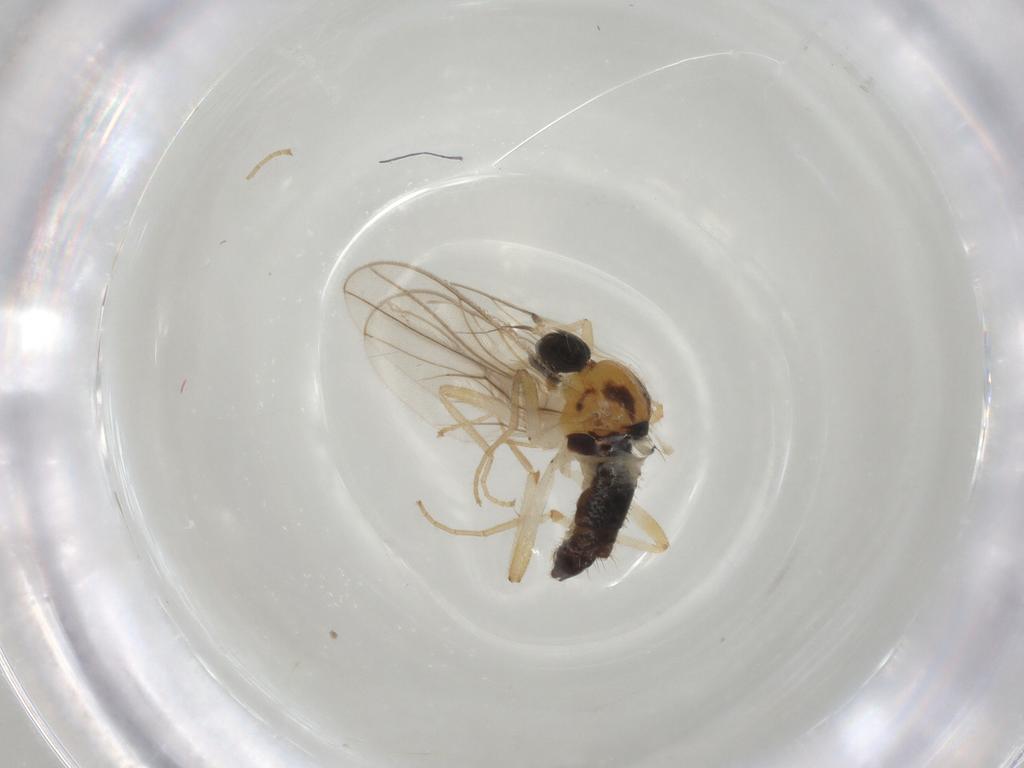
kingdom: Animalia
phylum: Arthropoda
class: Insecta
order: Diptera
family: Hybotidae
